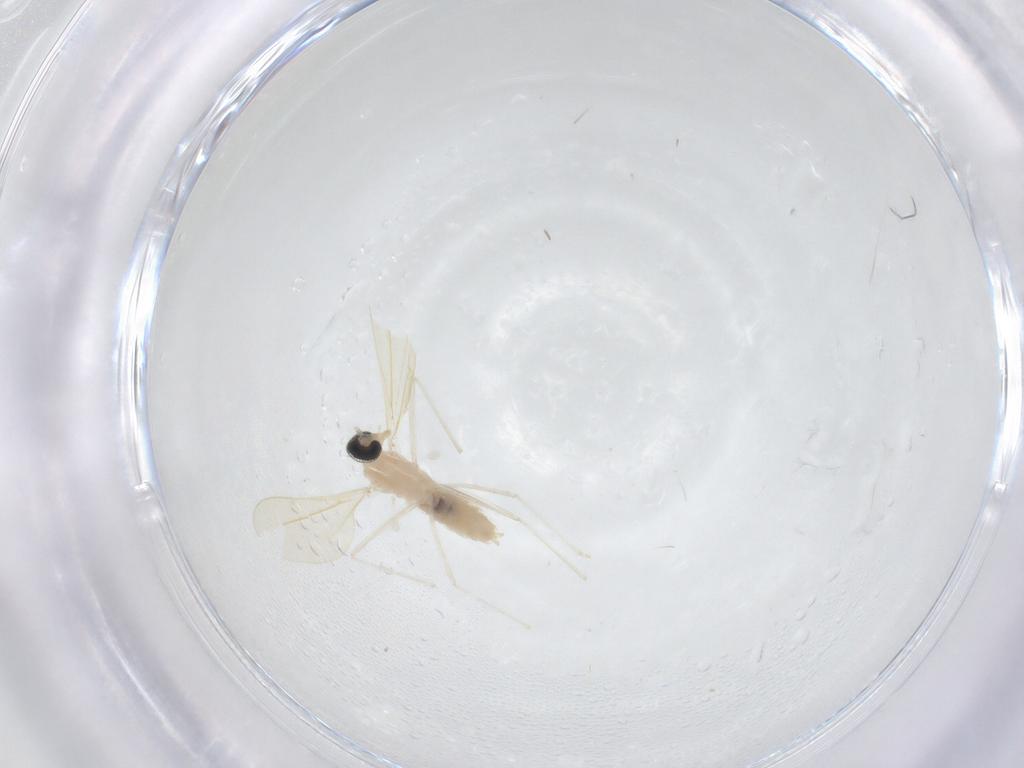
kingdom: Animalia
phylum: Arthropoda
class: Insecta
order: Diptera
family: Cecidomyiidae
